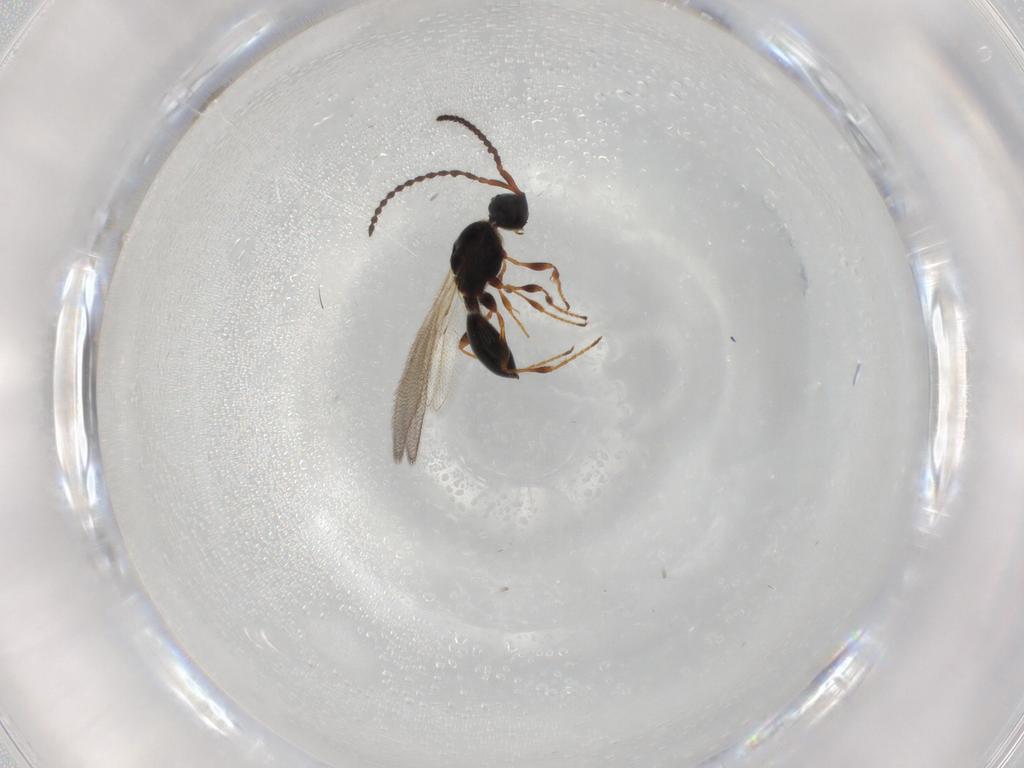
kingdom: Animalia
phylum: Arthropoda
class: Insecta
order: Hymenoptera
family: Diapriidae
